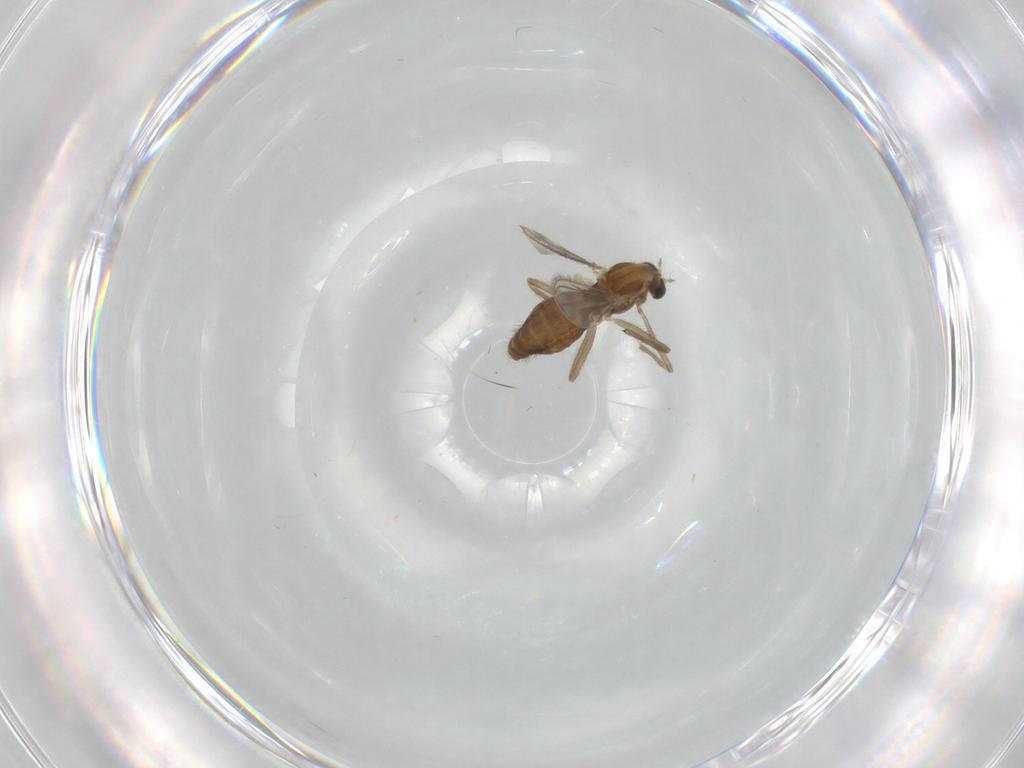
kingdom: Animalia
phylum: Arthropoda
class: Insecta
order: Diptera
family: Chironomidae
